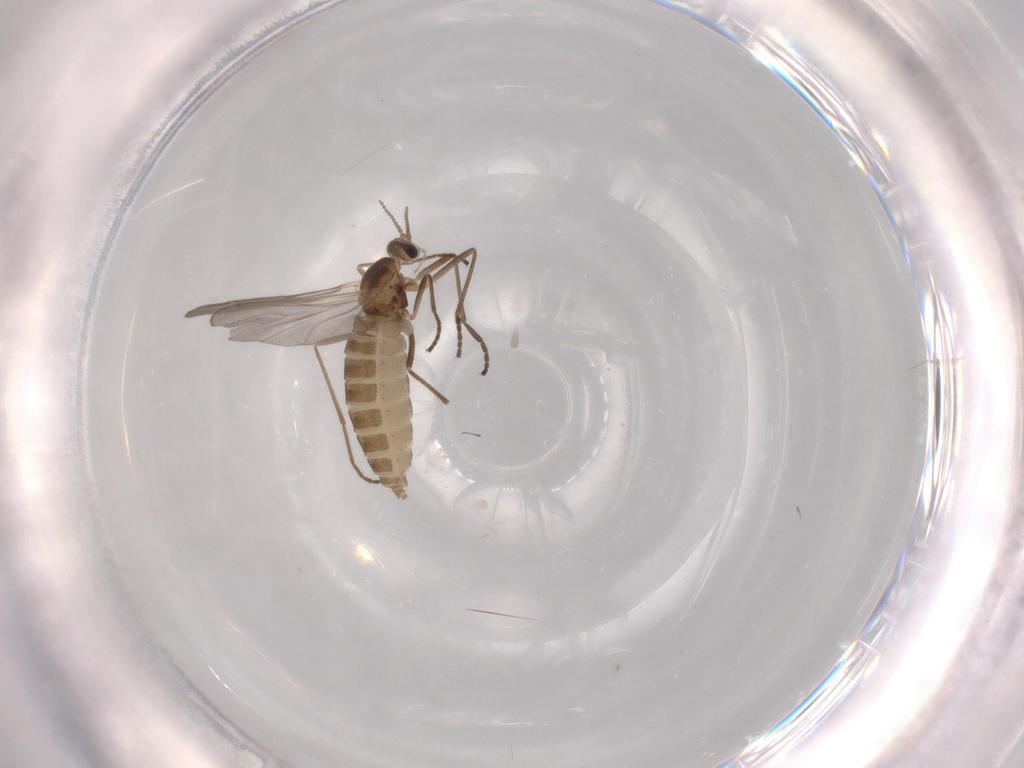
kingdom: Animalia
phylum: Arthropoda
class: Insecta
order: Diptera
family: Cecidomyiidae
